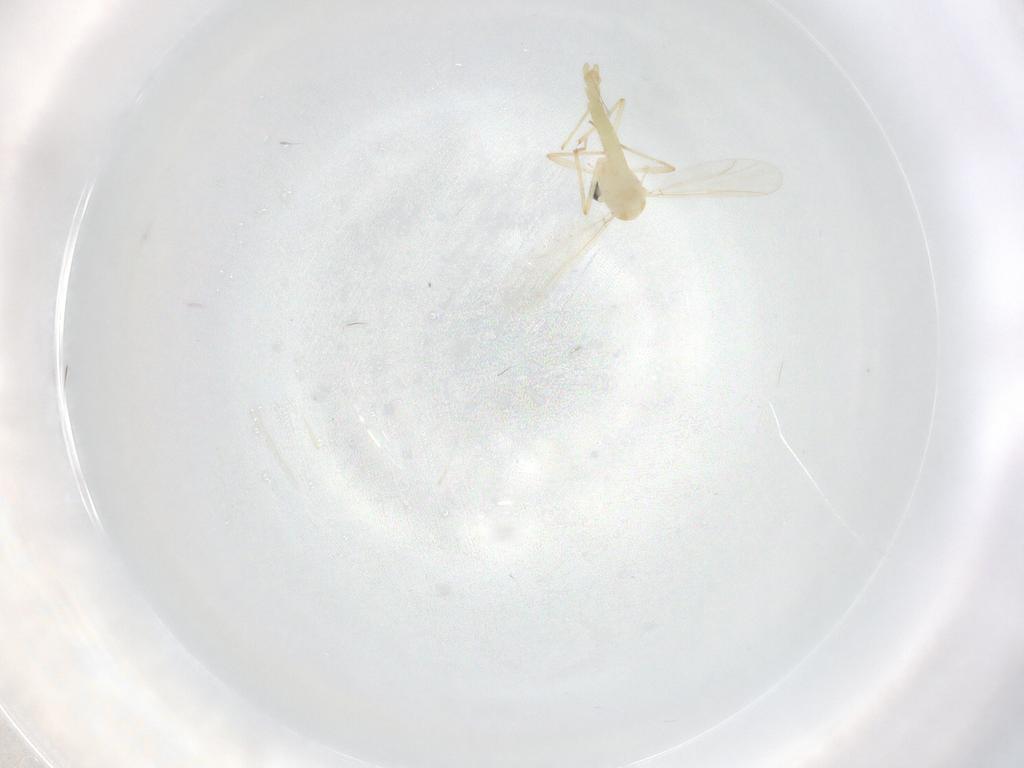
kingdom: Animalia
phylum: Arthropoda
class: Insecta
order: Diptera
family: Chironomidae
